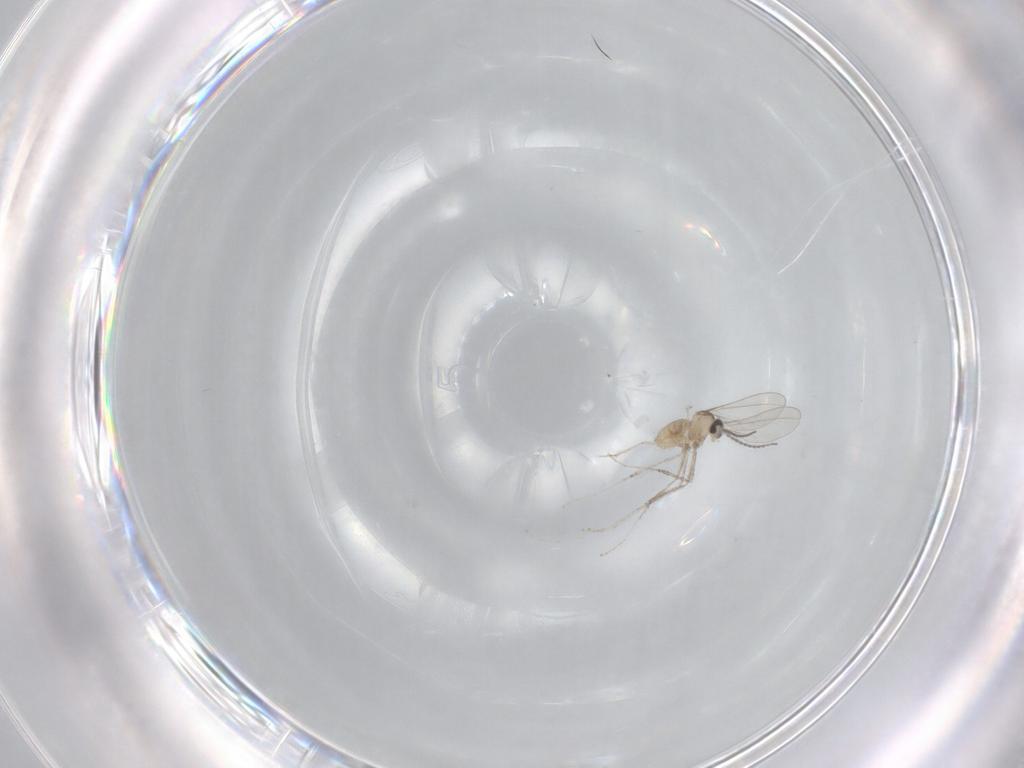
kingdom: Animalia
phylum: Arthropoda
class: Insecta
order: Diptera
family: Cecidomyiidae
